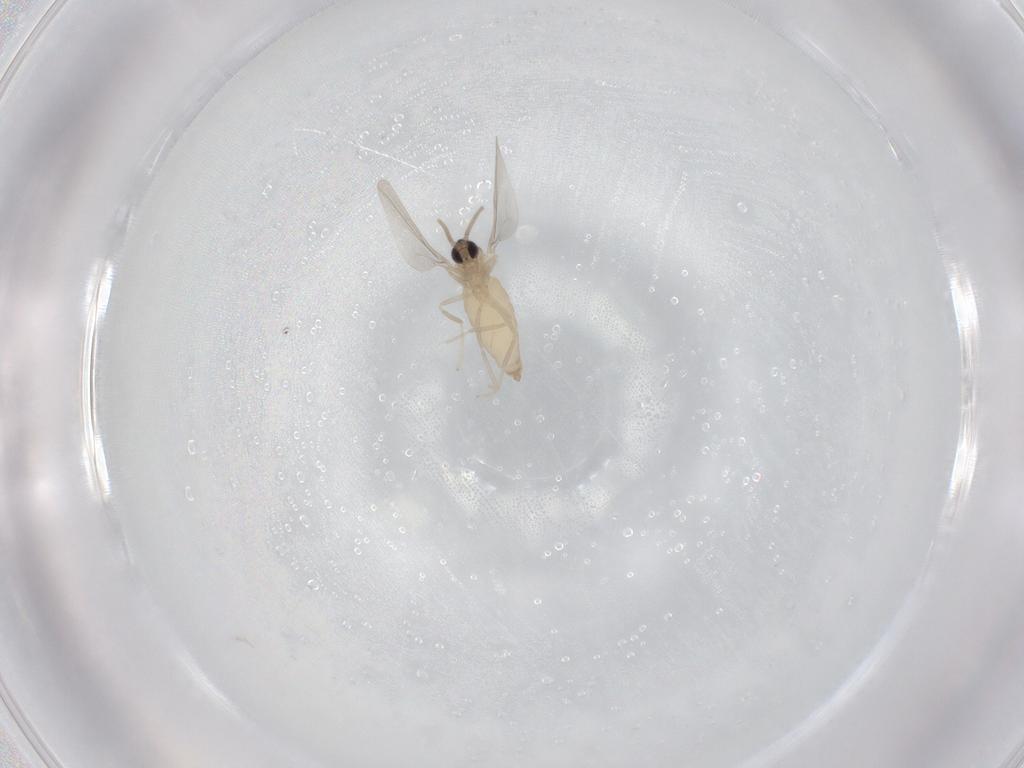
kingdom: Animalia
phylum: Arthropoda
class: Insecta
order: Diptera
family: Cecidomyiidae
